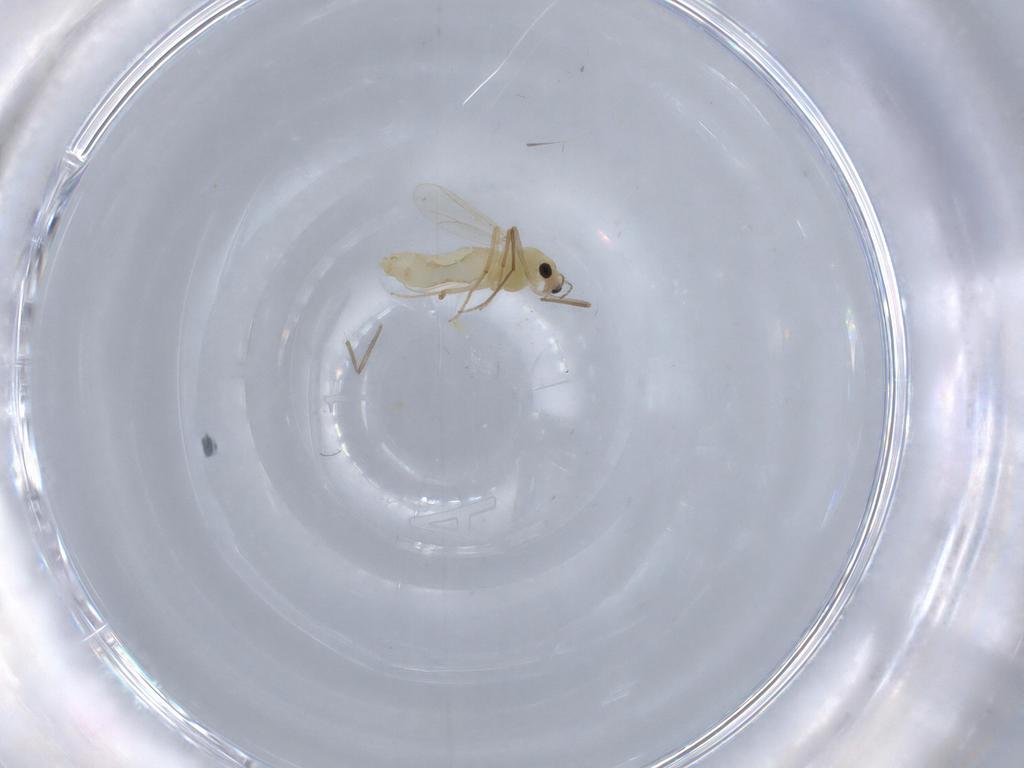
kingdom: Animalia
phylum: Arthropoda
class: Insecta
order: Diptera
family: Chironomidae
